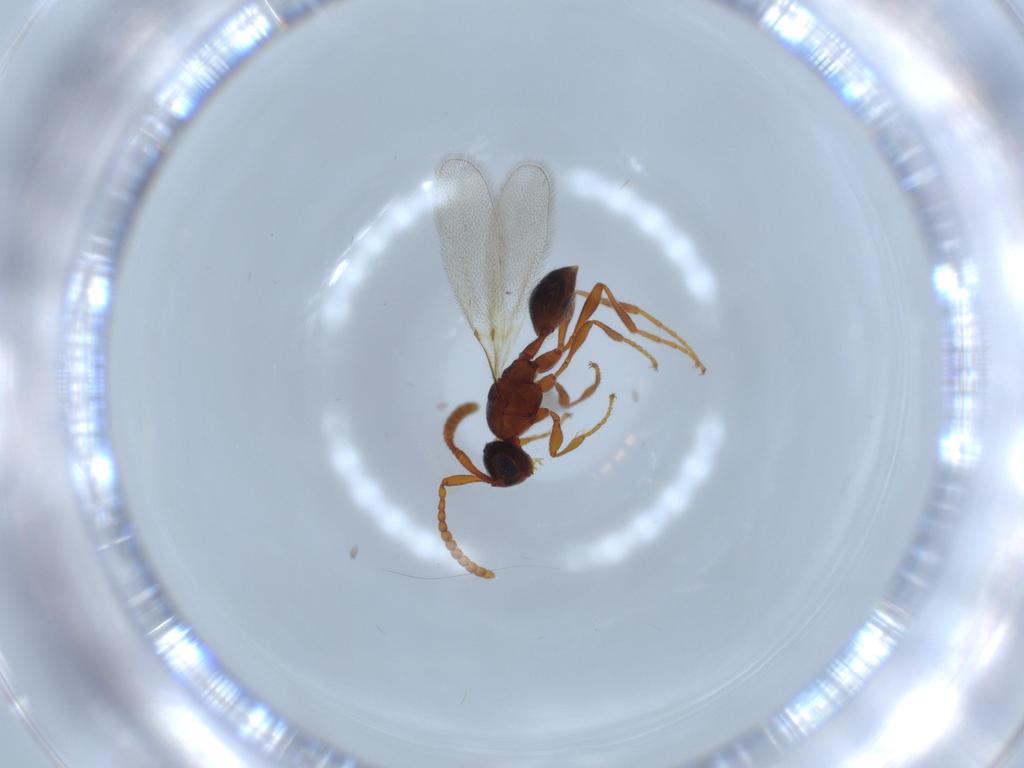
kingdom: Animalia
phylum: Arthropoda
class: Insecta
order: Hymenoptera
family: Diapriidae
